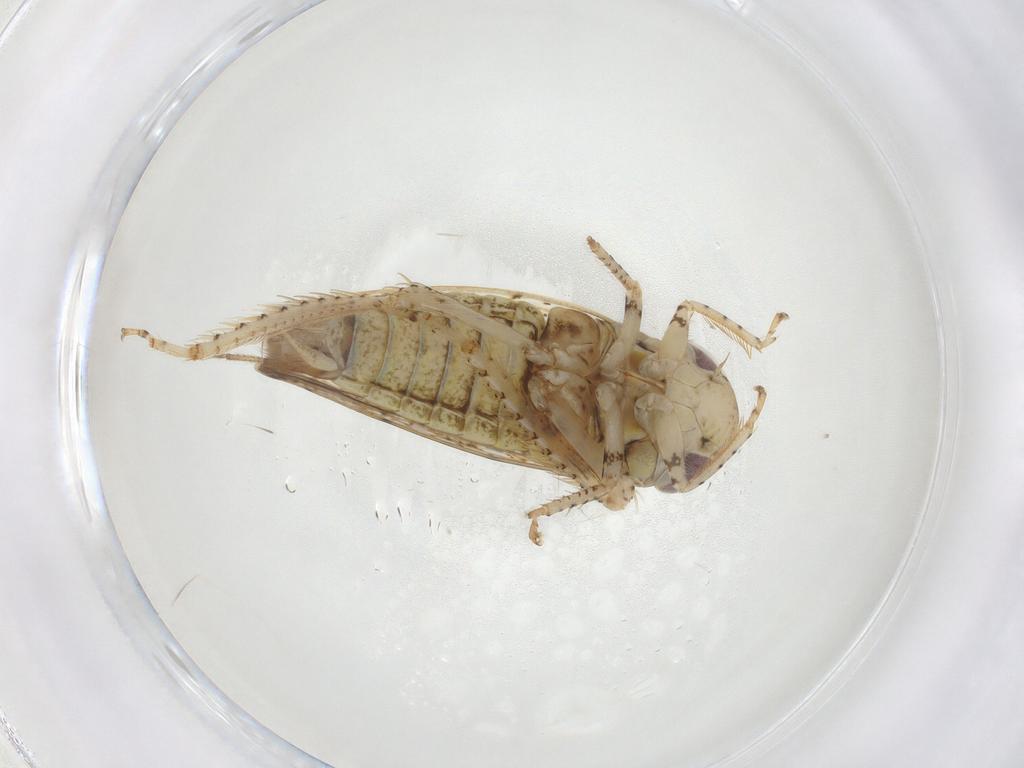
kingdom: Animalia
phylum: Arthropoda
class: Insecta
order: Hemiptera
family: Cicadellidae
